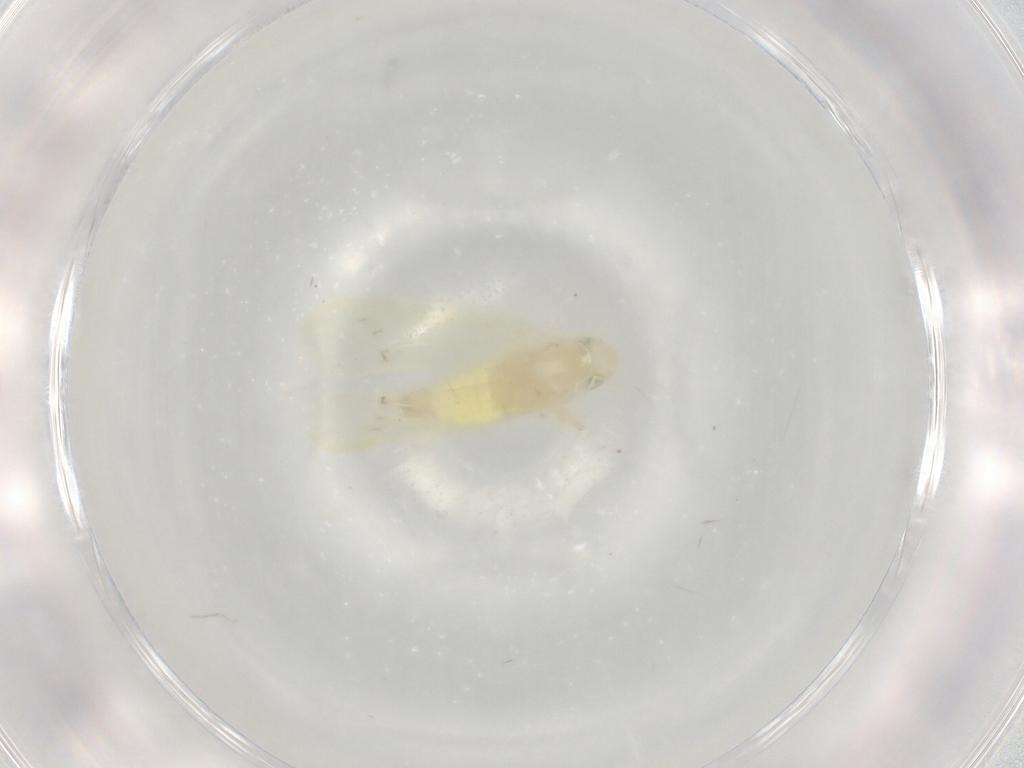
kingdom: Animalia
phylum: Arthropoda
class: Insecta
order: Hemiptera
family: Cicadellidae
